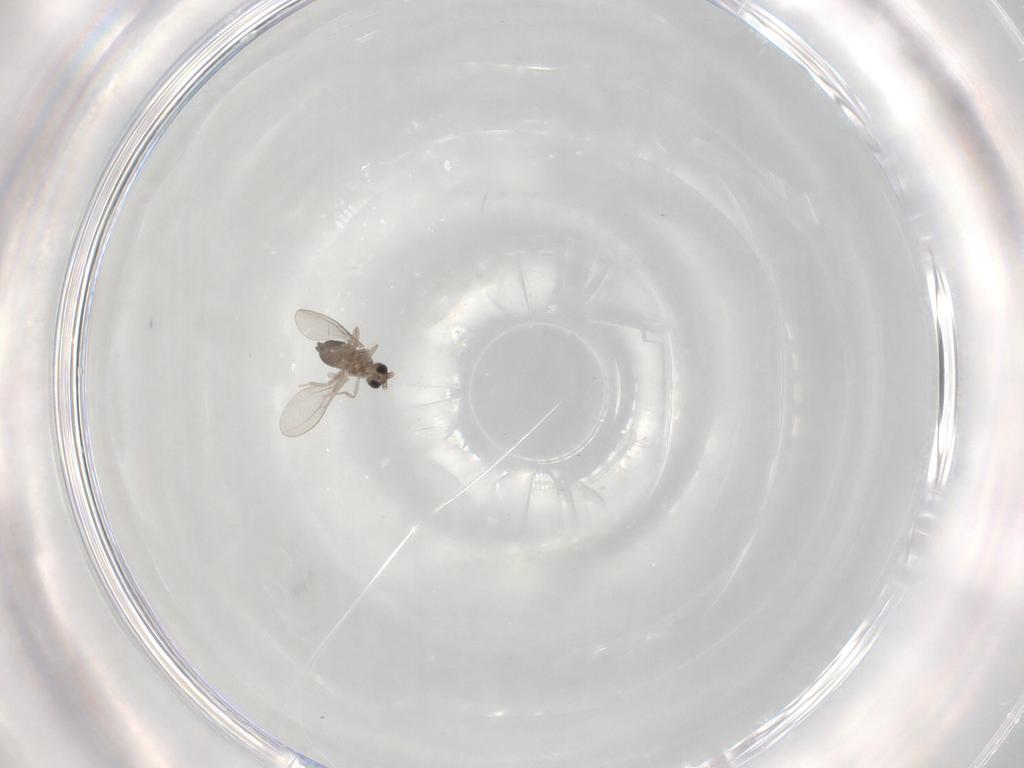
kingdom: Animalia
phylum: Arthropoda
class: Insecta
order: Diptera
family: Cecidomyiidae
